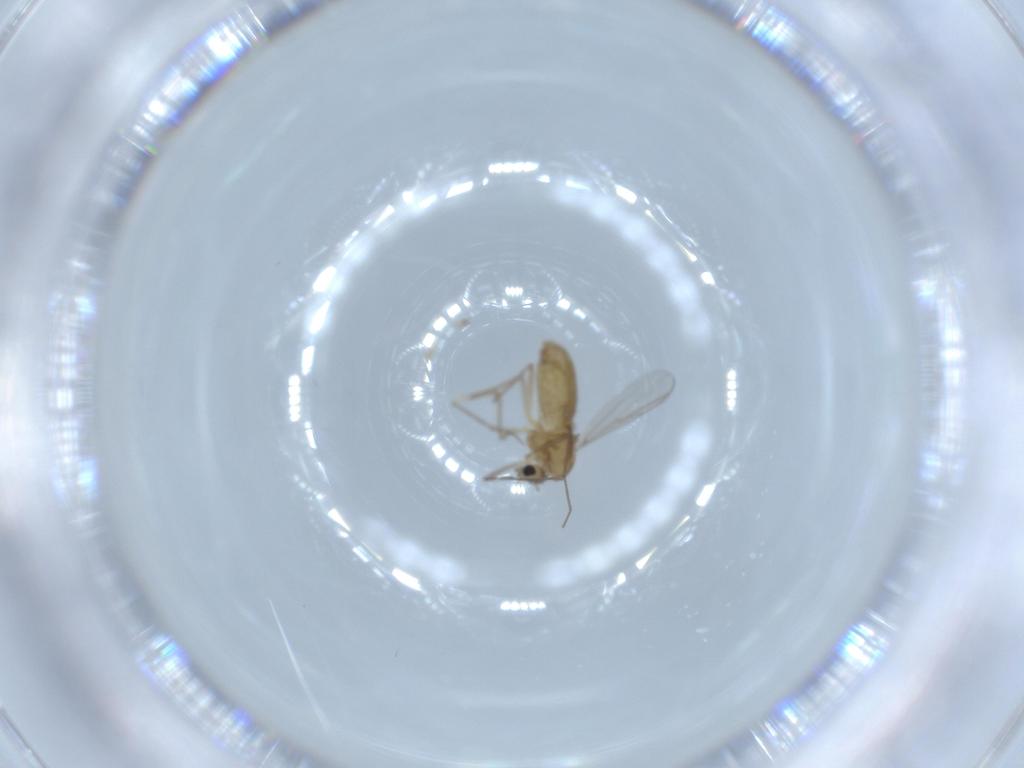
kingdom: Animalia
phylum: Arthropoda
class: Insecta
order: Diptera
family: Chironomidae
